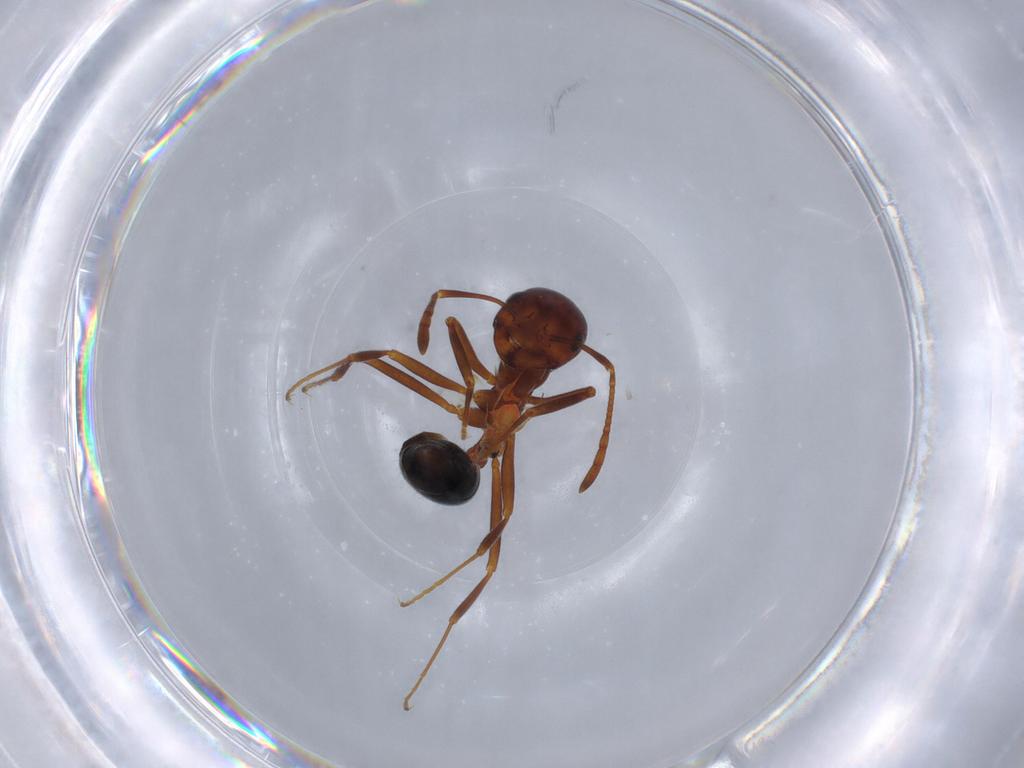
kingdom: Animalia
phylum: Arthropoda
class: Insecta
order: Hymenoptera
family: Formicidae
